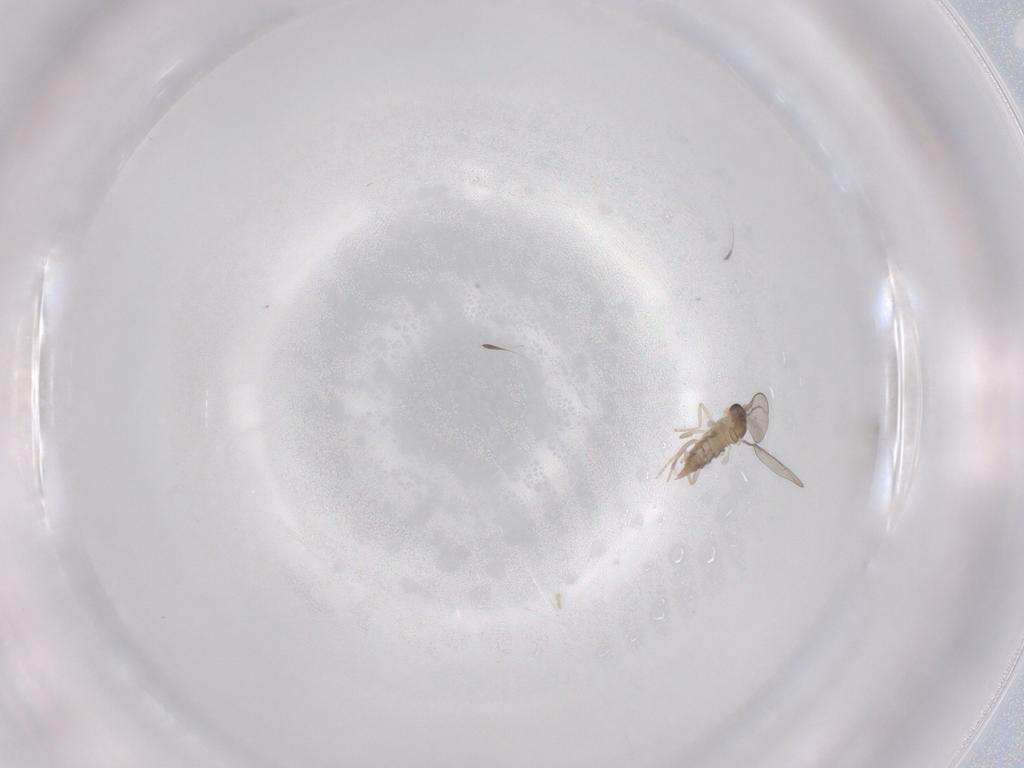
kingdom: Animalia
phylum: Arthropoda
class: Insecta
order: Diptera
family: Cecidomyiidae
